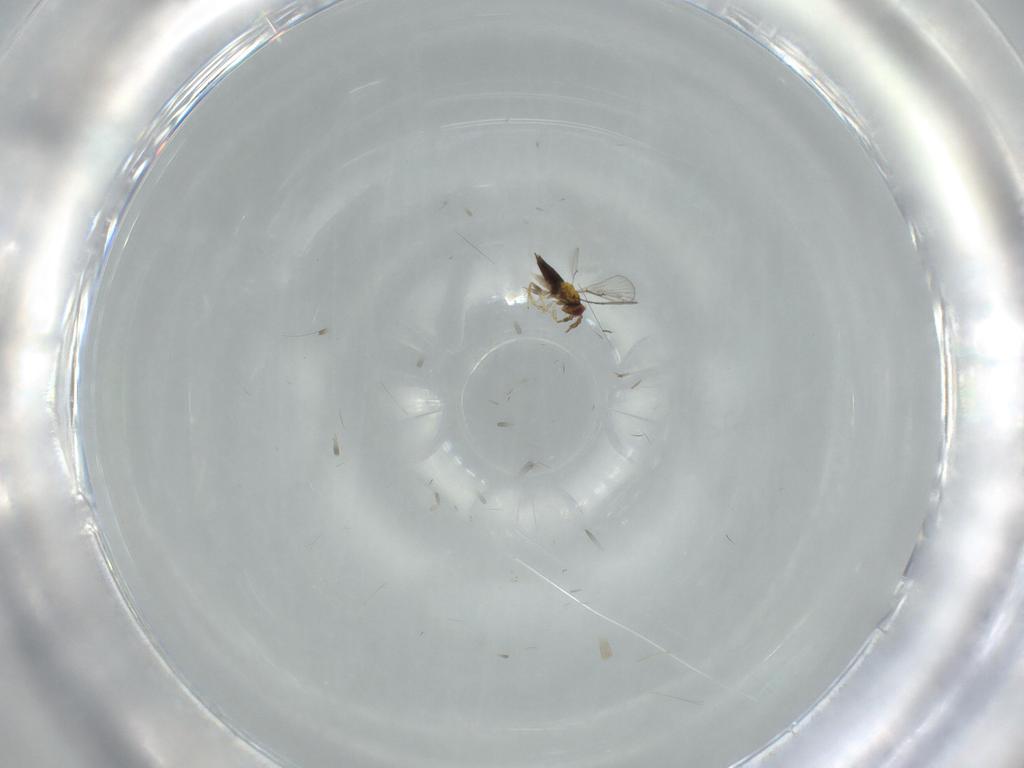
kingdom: Animalia
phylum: Arthropoda
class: Insecta
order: Hymenoptera
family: Trichogrammatidae
